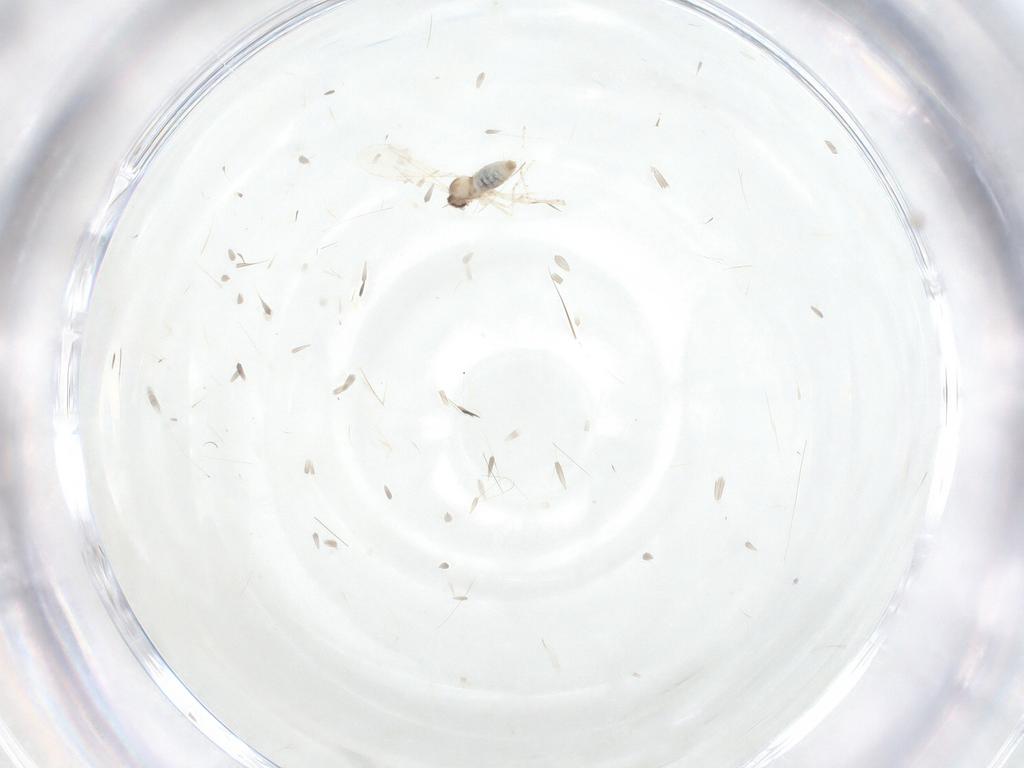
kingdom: Animalia
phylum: Arthropoda
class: Insecta
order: Diptera
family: Chironomidae
